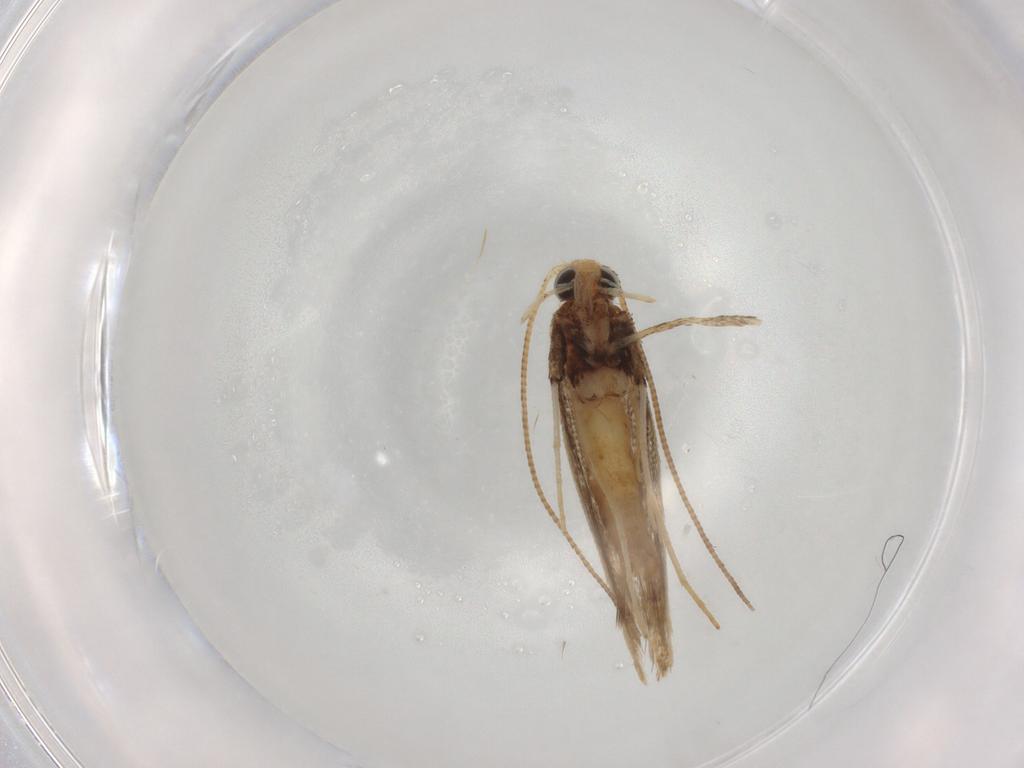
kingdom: Animalia
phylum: Arthropoda
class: Insecta
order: Lepidoptera
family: Gracillariidae
